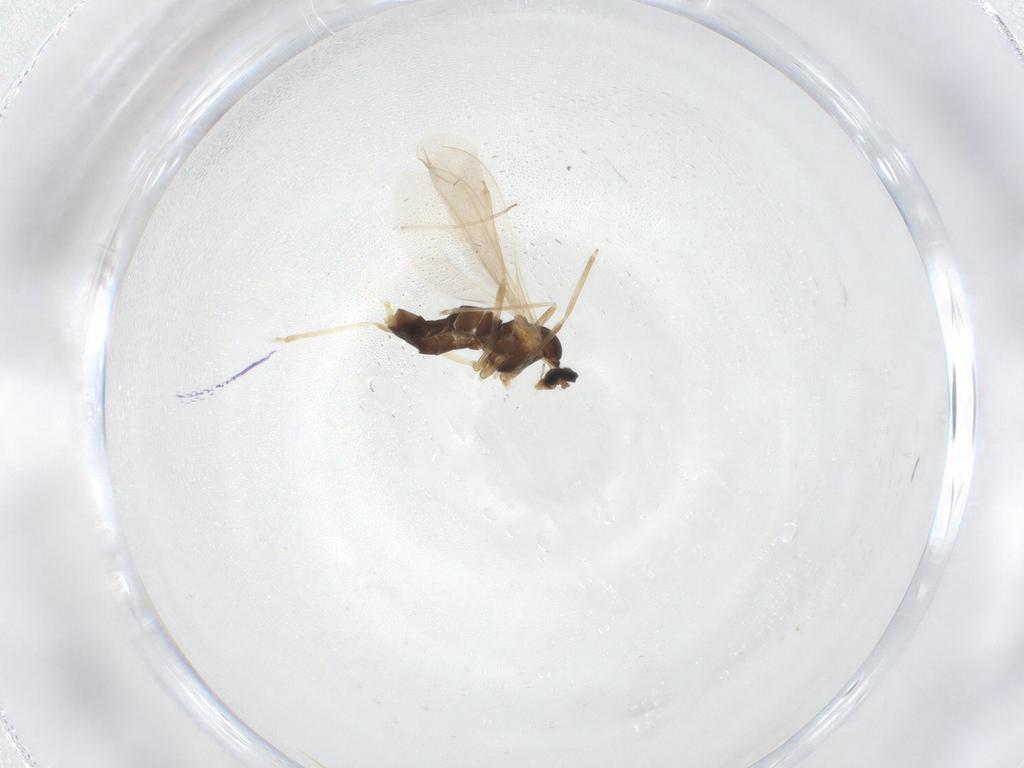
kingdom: Animalia
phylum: Arthropoda
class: Insecta
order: Diptera
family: Cecidomyiidae
